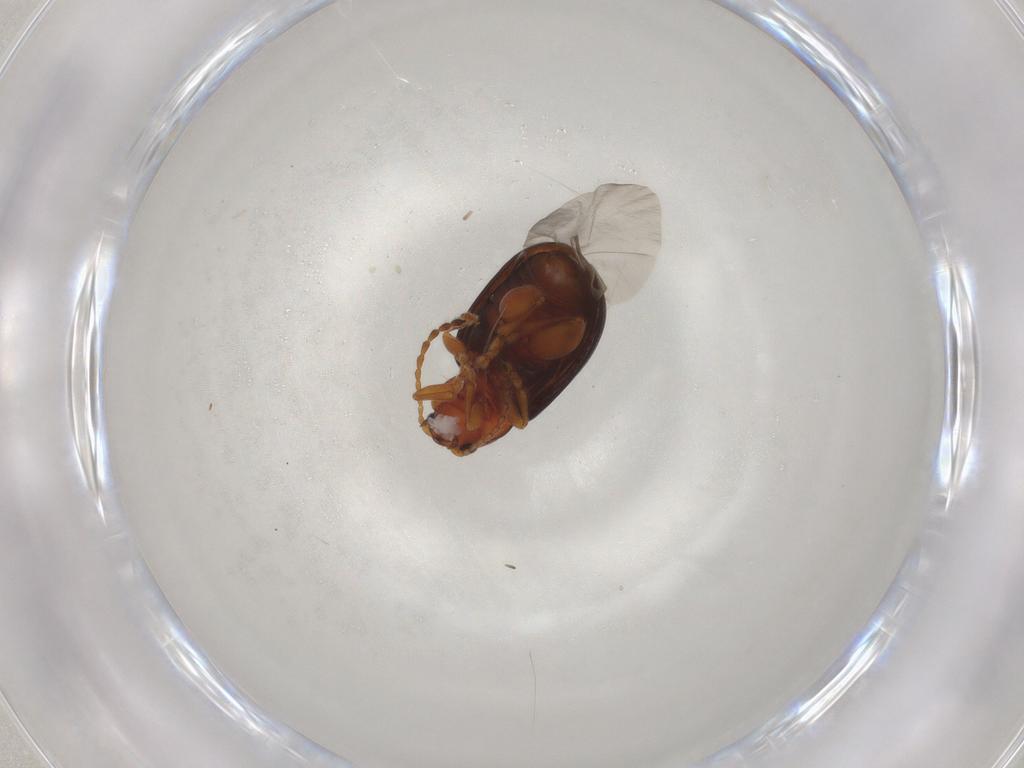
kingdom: Animalia
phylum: Arthropoda
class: Insecta
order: Coleoptera
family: Chrysomelidae
